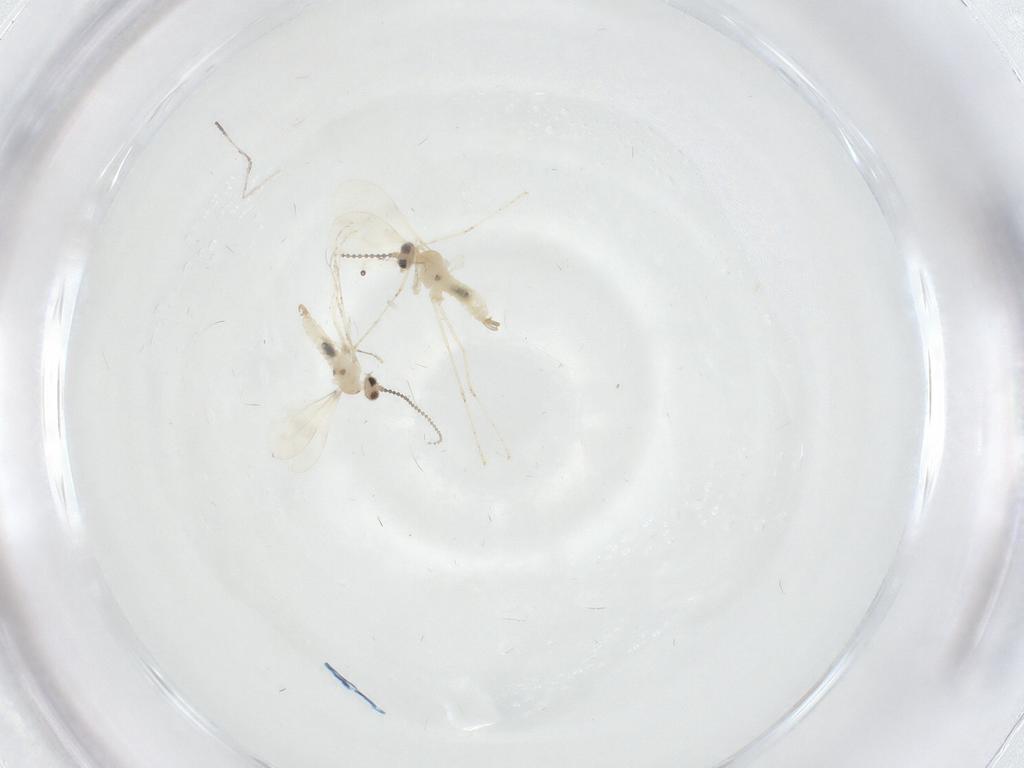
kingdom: Animalia
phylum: Arthropoda
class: Insecta
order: Diptera
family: Cecidomyiidae
